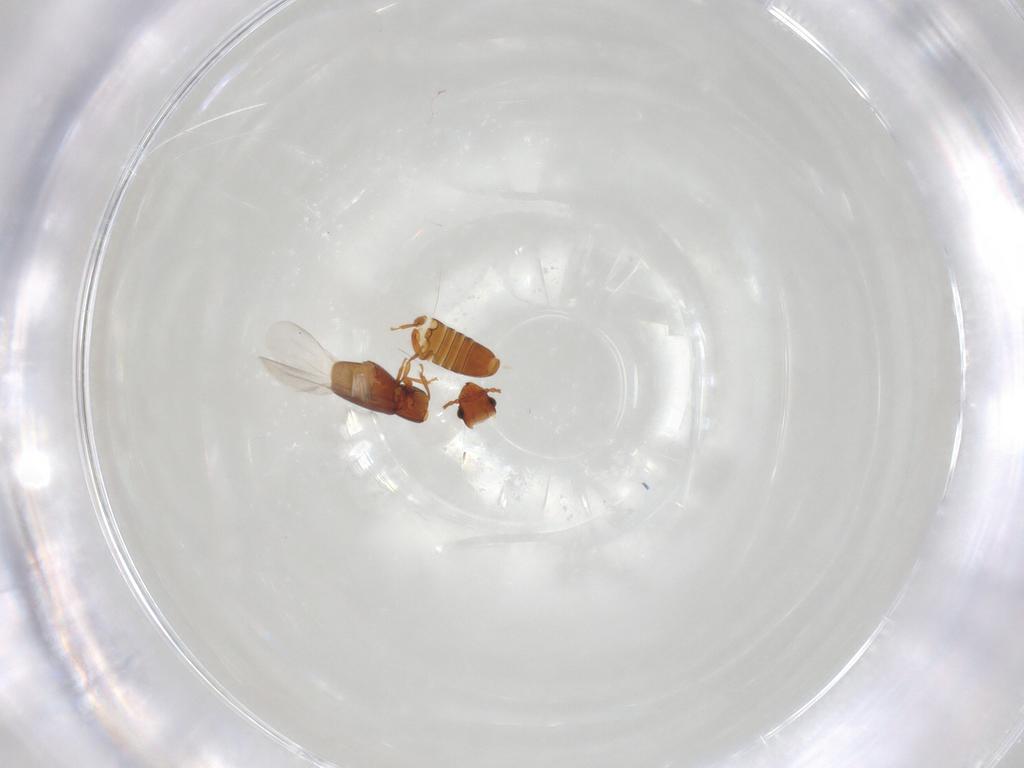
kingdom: Animalia
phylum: Arthropoda
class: Insecta
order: Coleoptera
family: Smicripidae
